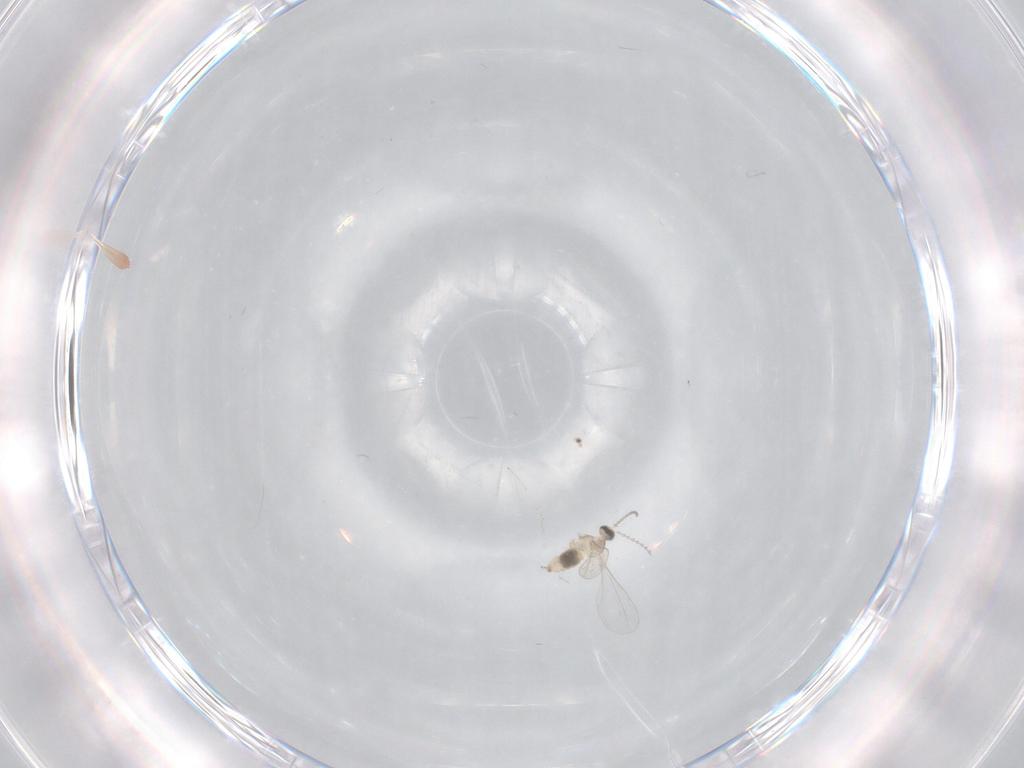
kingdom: Animalia
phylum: Arthropoda
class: Insecta
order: Diptera
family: Cecidomyiidae
